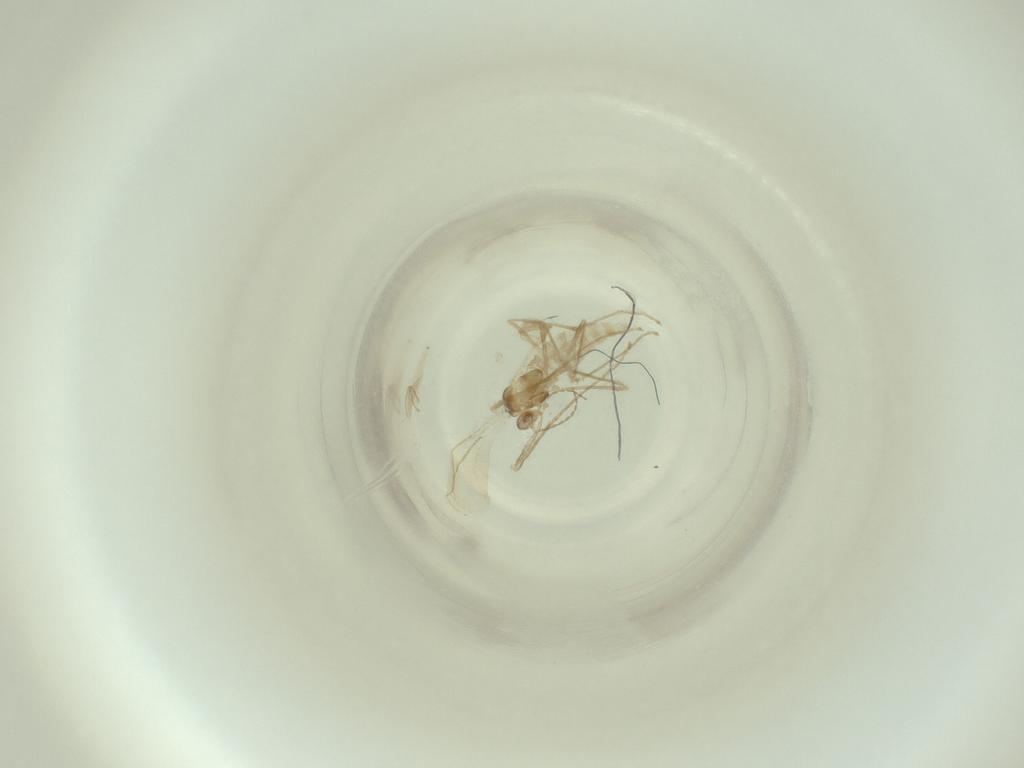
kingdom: Animalia
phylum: Arthropoda
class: Insecta
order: Diptera
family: Cecidomyiidae
